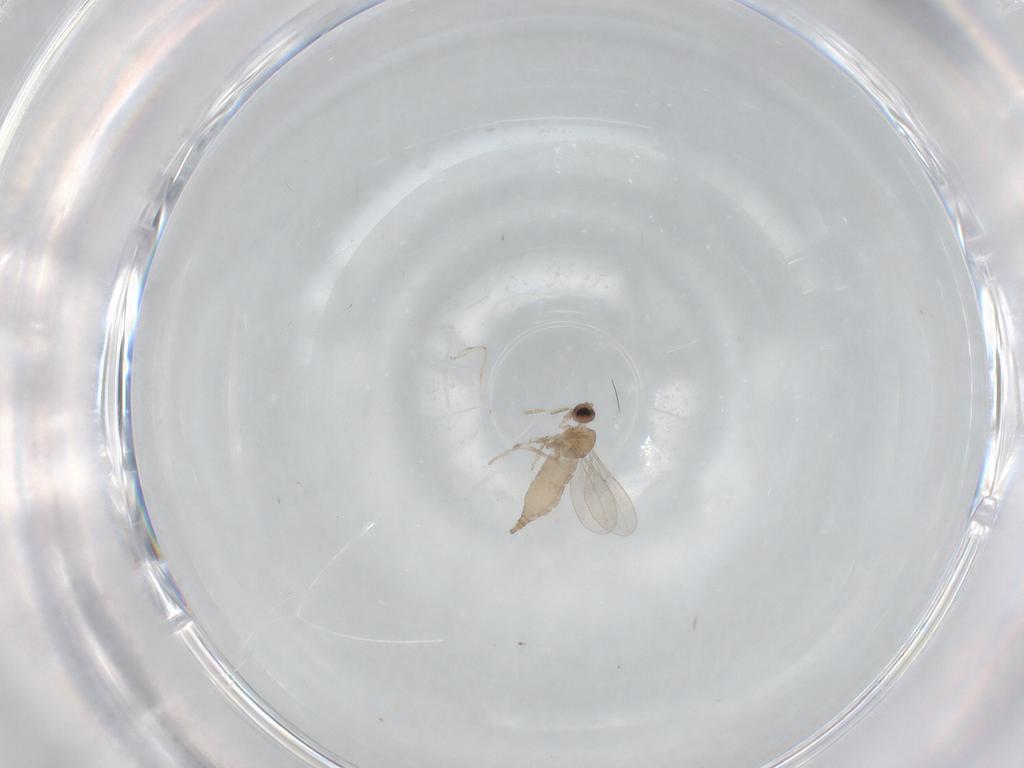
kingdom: Animalia
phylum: Arthropoda
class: Insecta
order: Diptera
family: Cecidomyiidae
